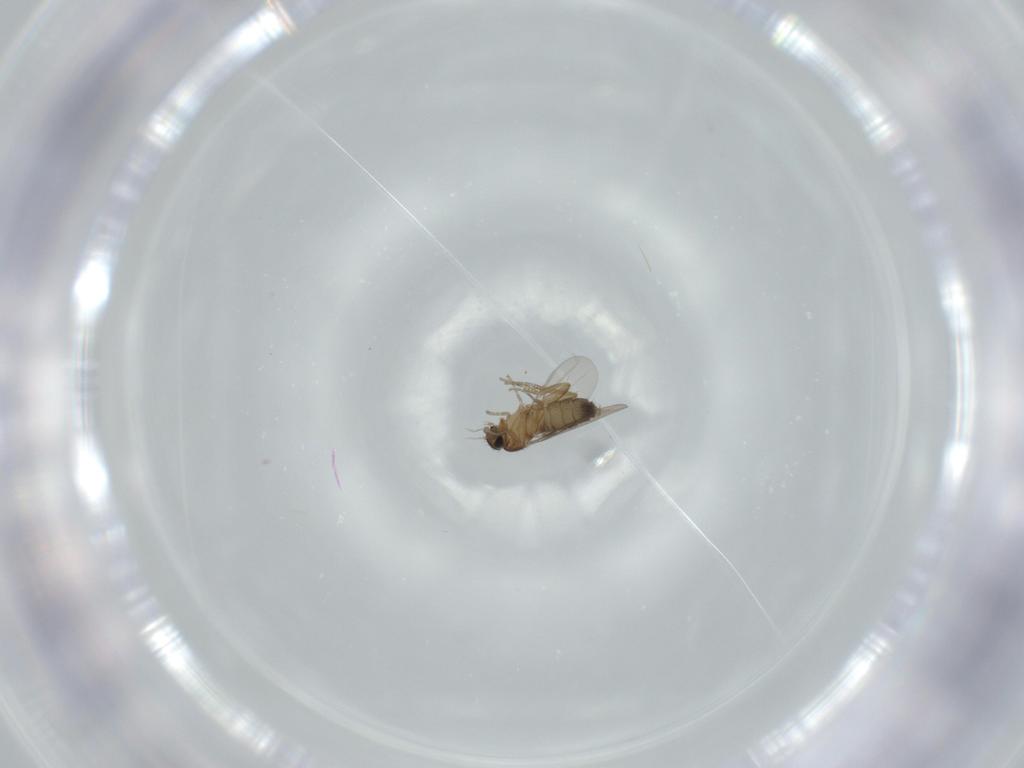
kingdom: Animalia
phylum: Arthropoda
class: Insecta
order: Diptera
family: Phoridae
